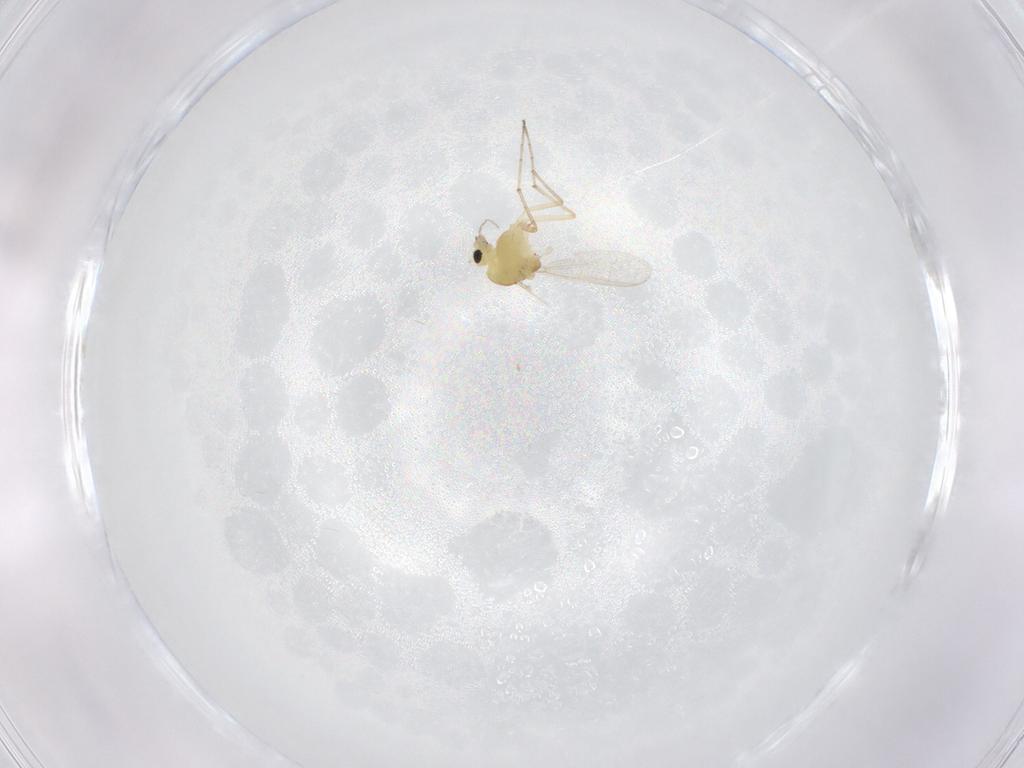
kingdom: Animalia
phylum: Arthropoda
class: Insecta
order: Diptera
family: Chironomidae
